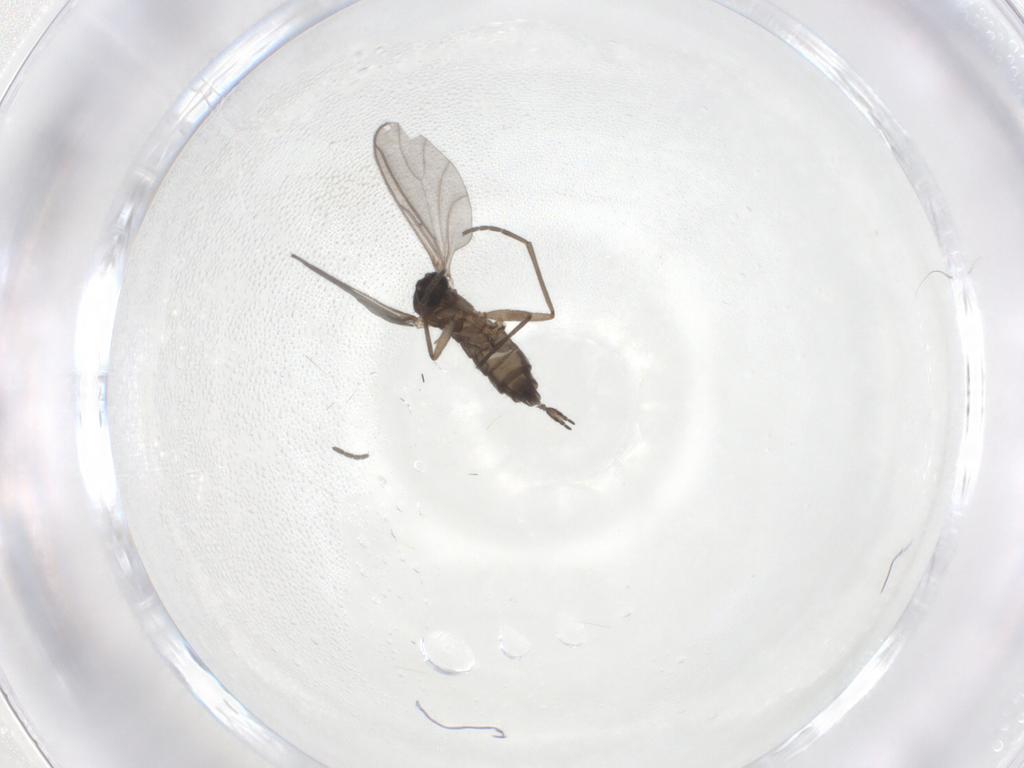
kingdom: Animalia
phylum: Arthropoda
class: Insecta
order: Diptera
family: Sciaridae
